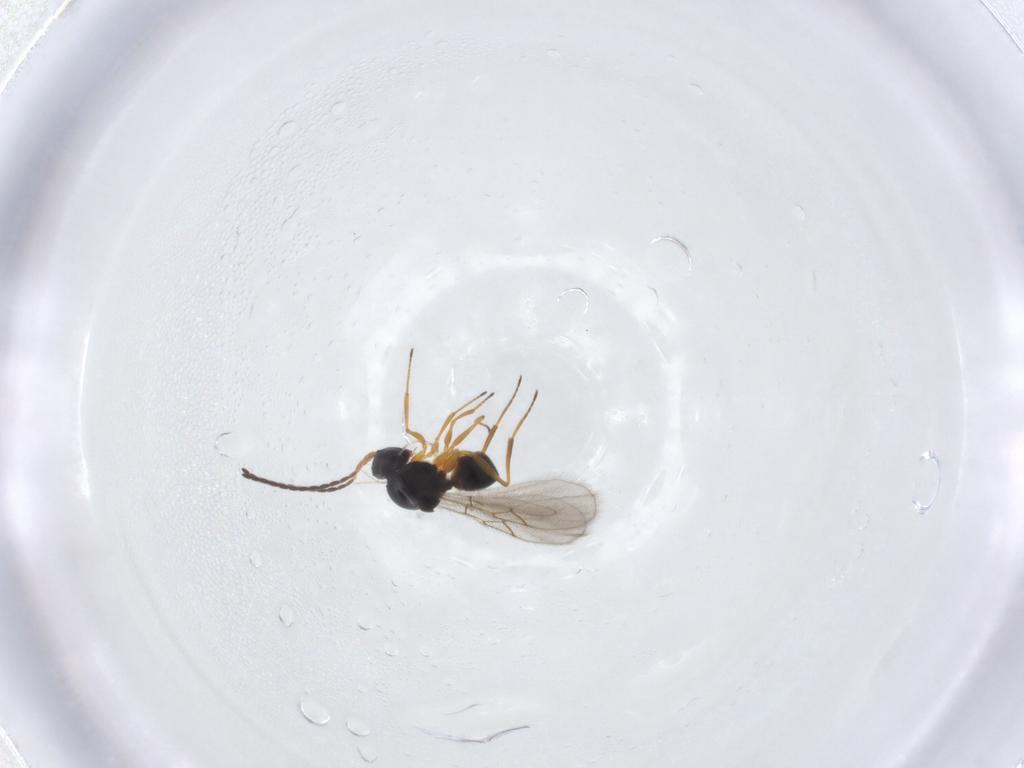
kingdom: Animalia
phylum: Arthropoda
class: Insecta
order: Hymenoptera
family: Figitidae
